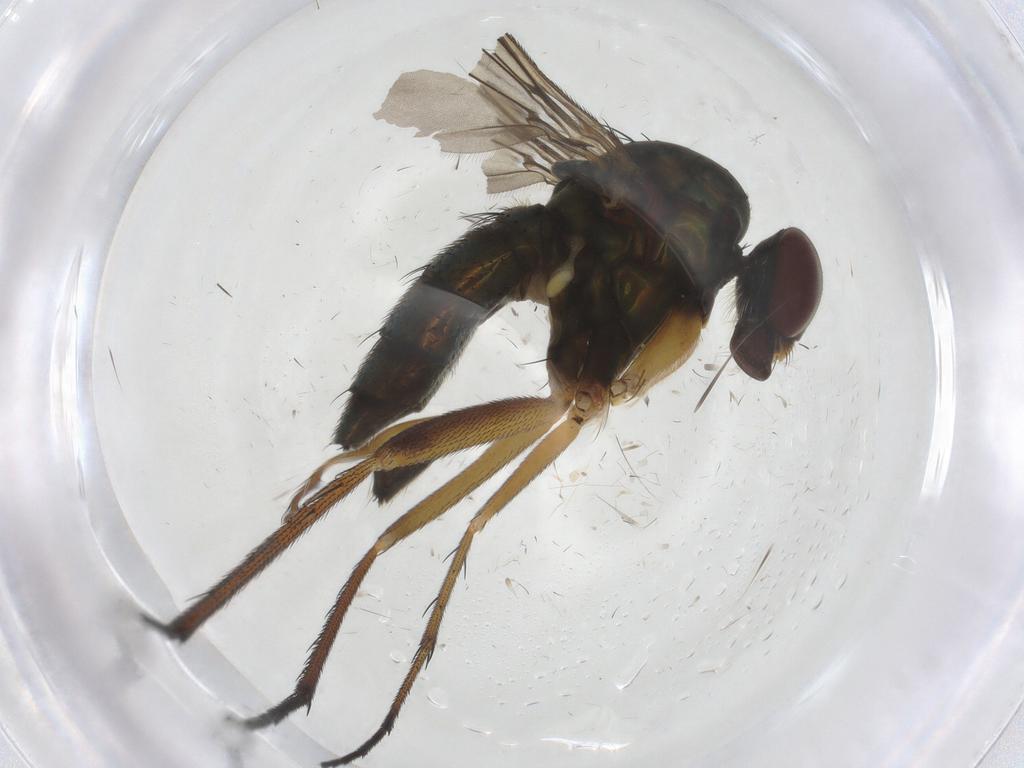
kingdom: Animalia
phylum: Arthropoda
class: Insecta
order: Diptera
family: Dolichopodidae
